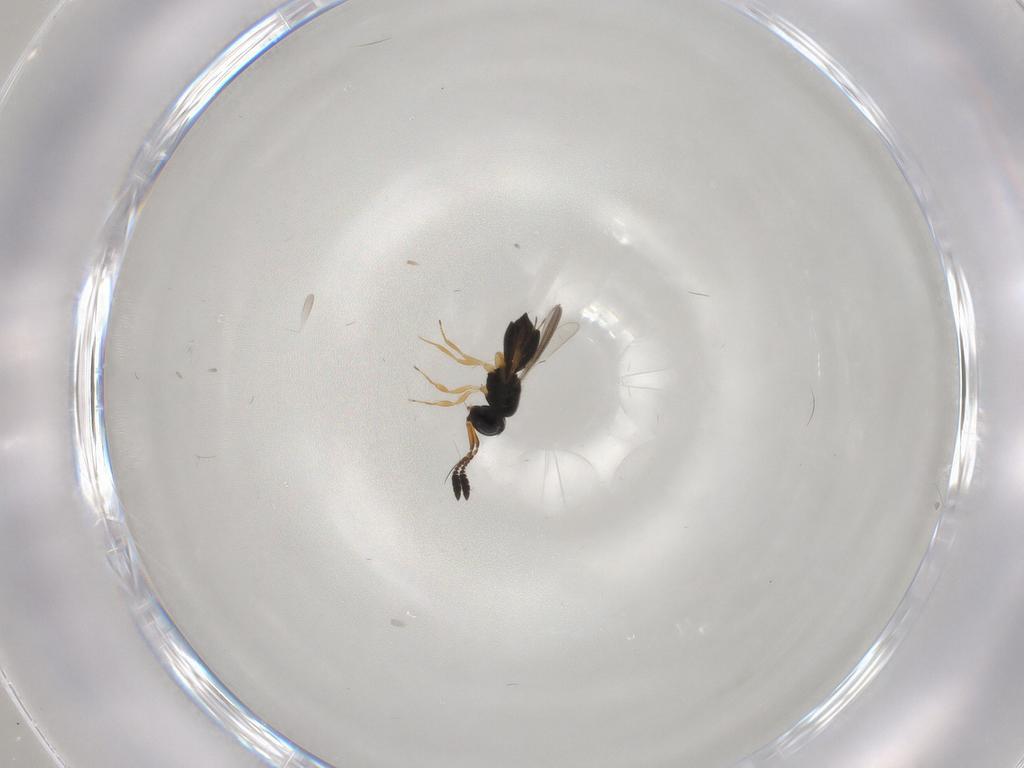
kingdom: Animalia
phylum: Arthropoda
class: Insecta
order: Hymenoptera
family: Scelionidae
